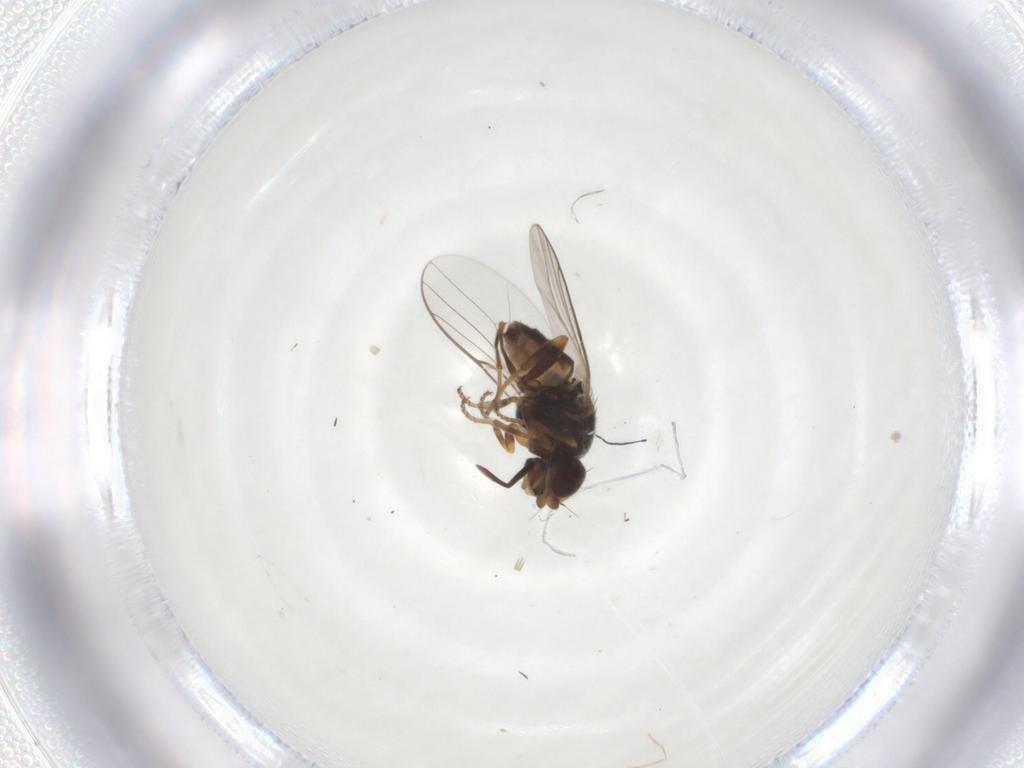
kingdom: Animalia
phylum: Arthropoda
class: Insecta
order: Diptera
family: Chloropidae
